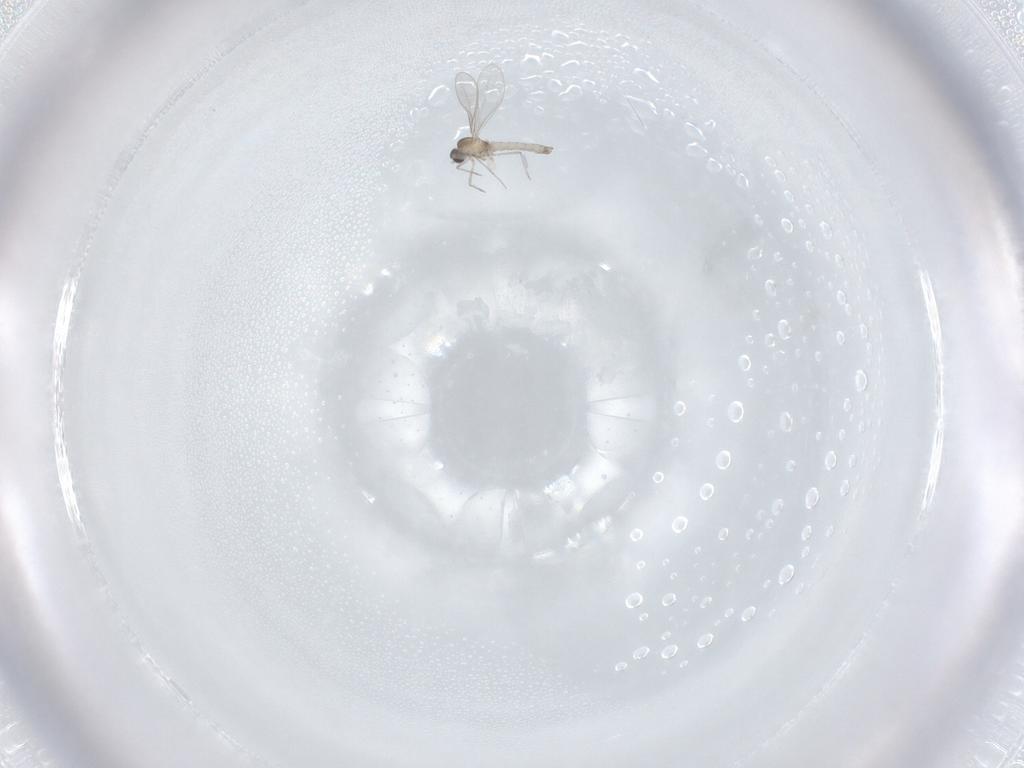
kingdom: Animalia
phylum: Arthropoda
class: Insecta
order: Diptera
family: Cecidomyiidae
